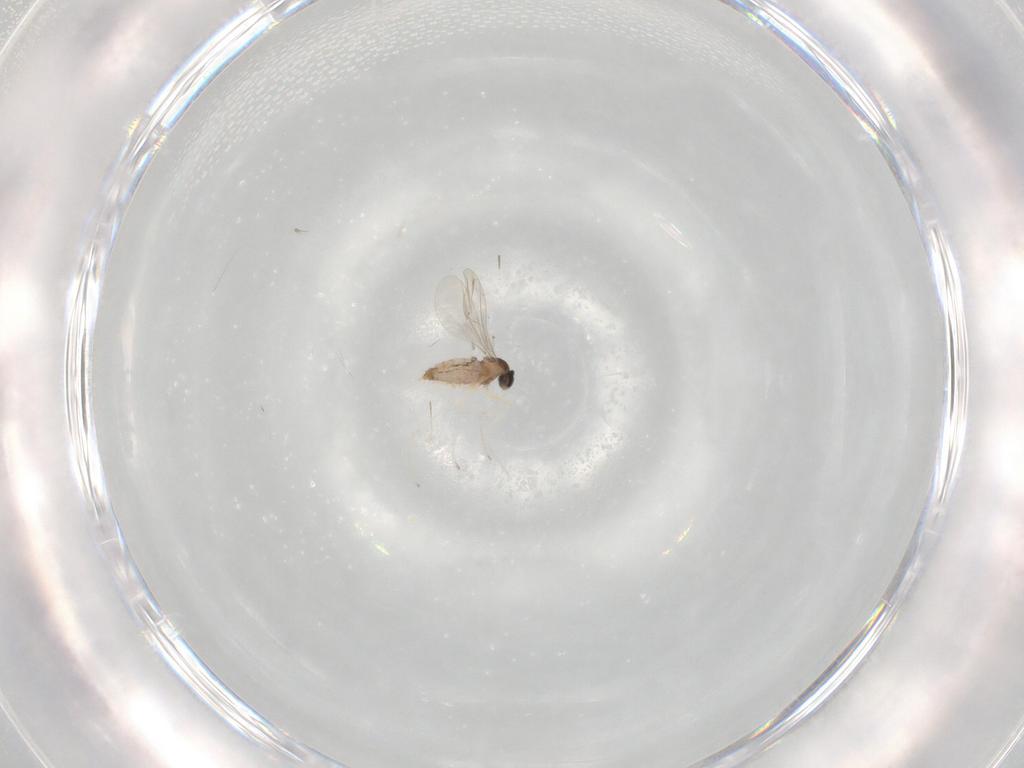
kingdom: Animalia
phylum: Arthropoda
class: Insecta
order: Diptera
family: Cecidomyiidae
